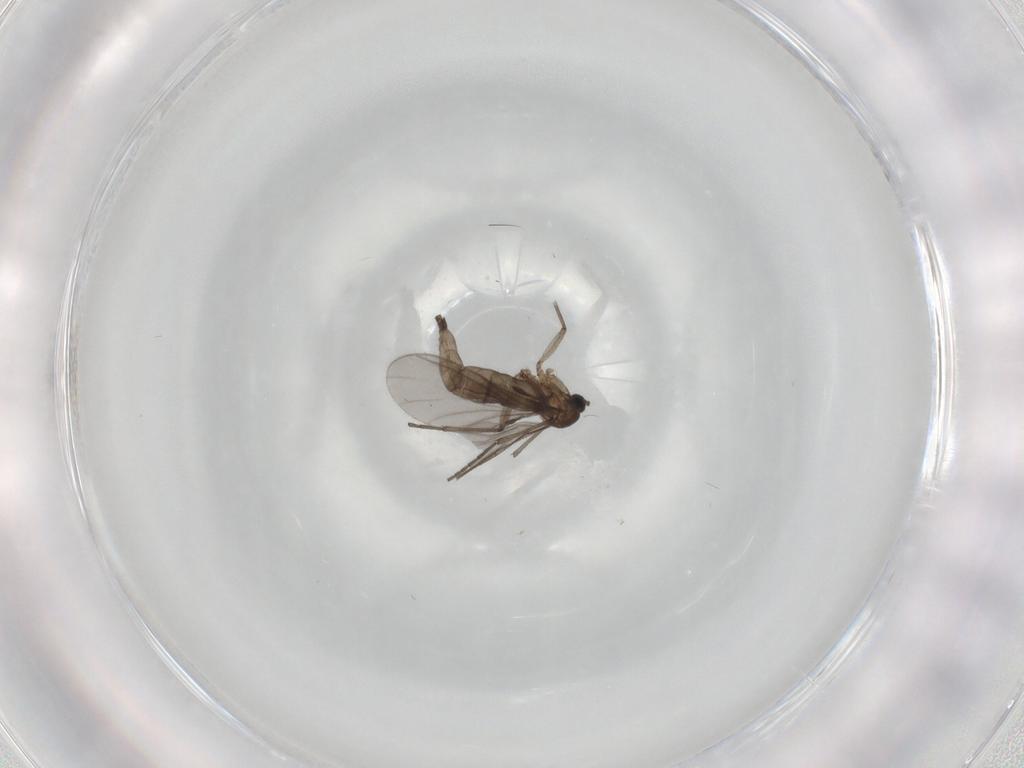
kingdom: Animalia
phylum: Arthropoda
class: Insecta
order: Diptera
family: Sciaridae
